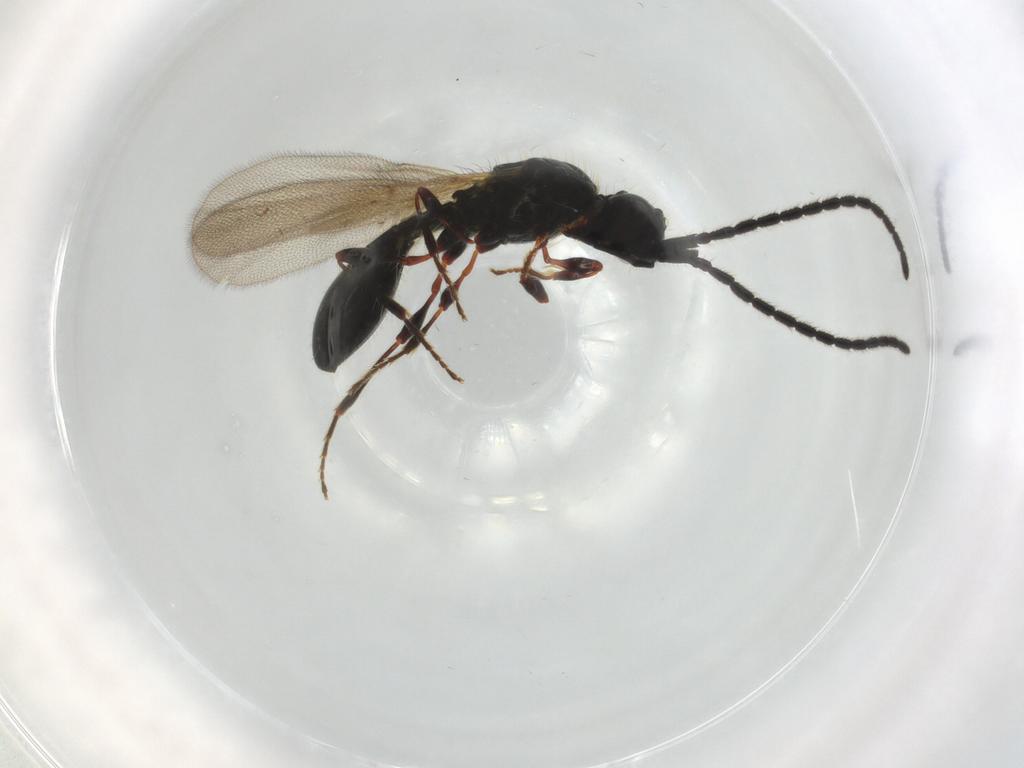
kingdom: Animalia
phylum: Arthropoda
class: Insecta
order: Hymenoptera
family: Diapriidae
